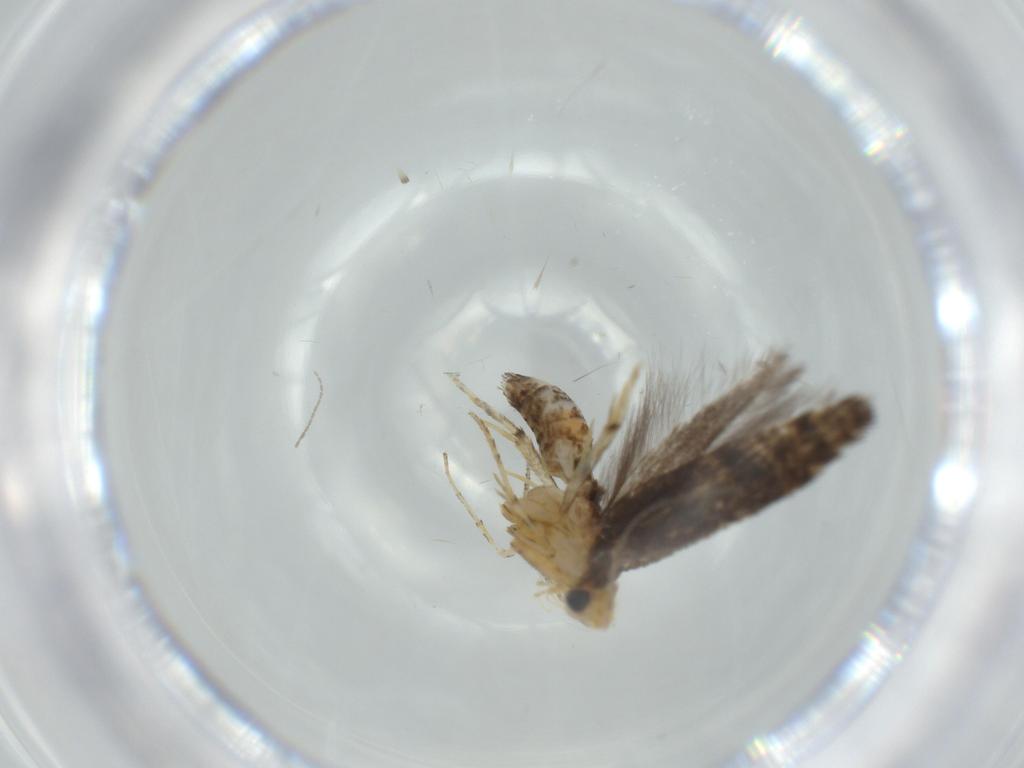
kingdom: Animalia
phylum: Arthropoda
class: Insecta
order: Lepidoptera
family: Argyresthiidae
